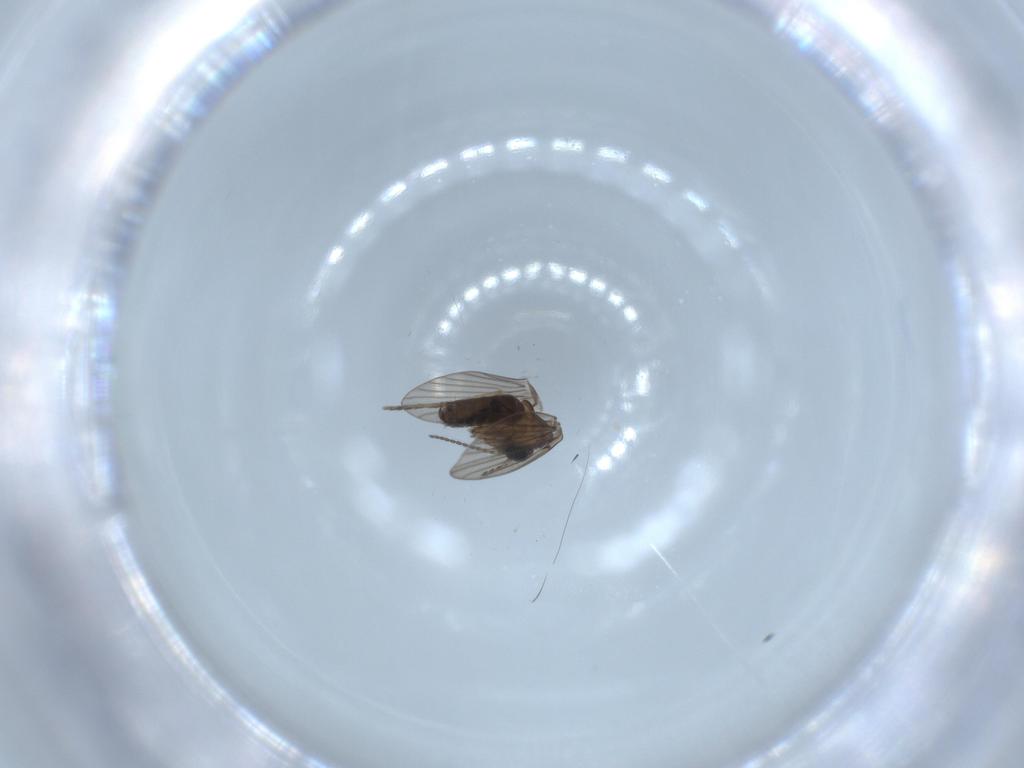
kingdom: Animalia
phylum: Arthropoda
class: Insecta
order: Diptera
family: Psychodidae
